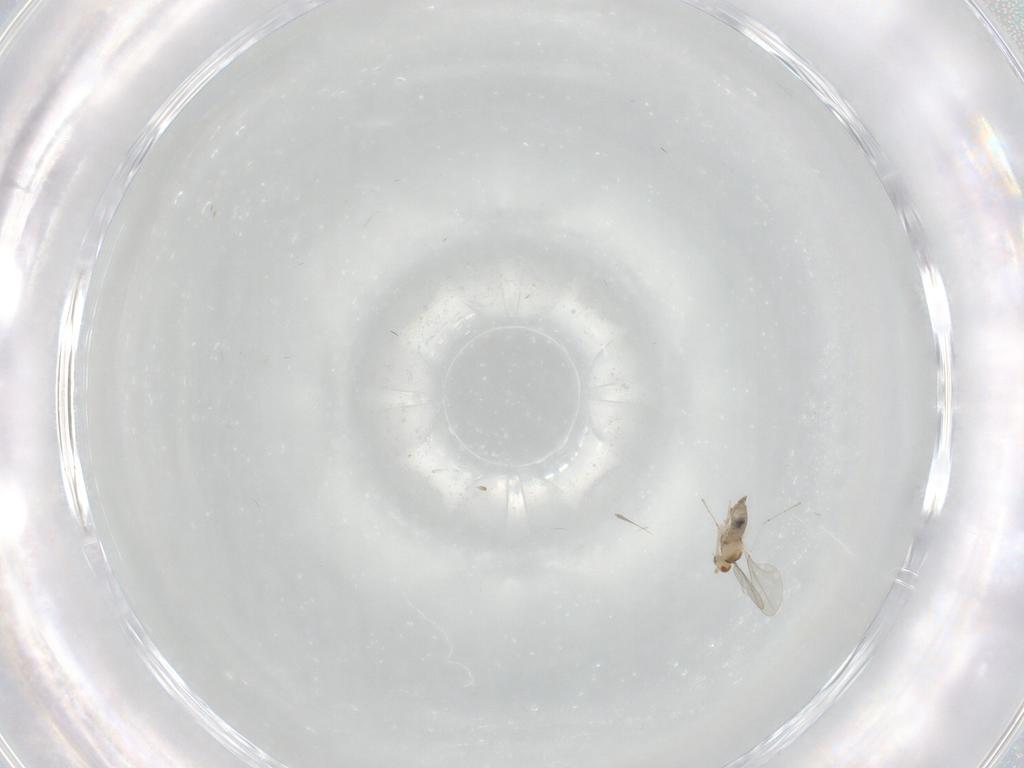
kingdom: Animalia
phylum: Arthropoda
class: Insecta
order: Diptera
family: Cecidomyiidae
